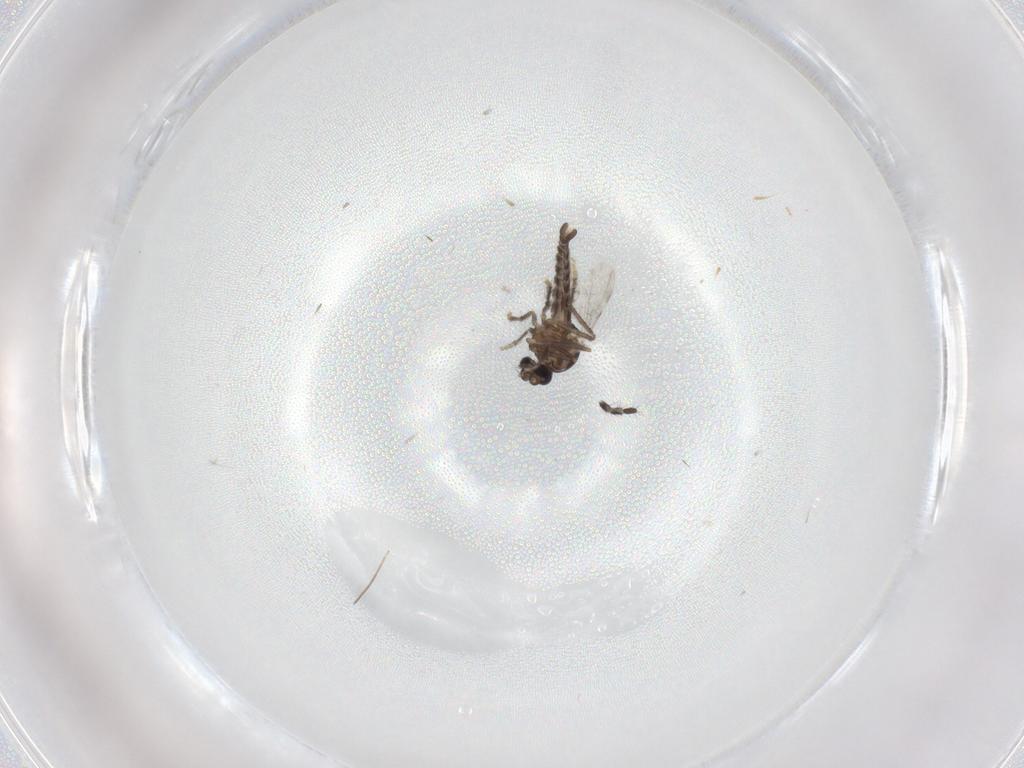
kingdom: Animalia
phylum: Arthropoda
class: Insecta
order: Diptera
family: Ceratopogonidae
